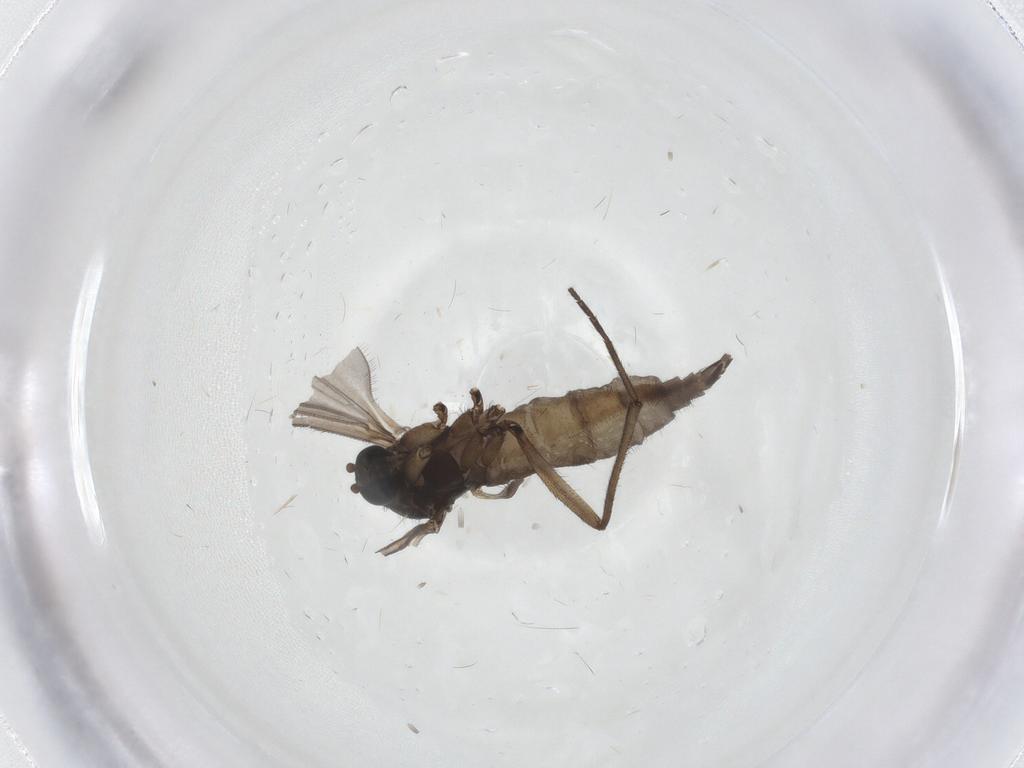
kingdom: Animalia
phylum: Arthropoda
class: Insecta
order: Diptera
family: Sciaridae
